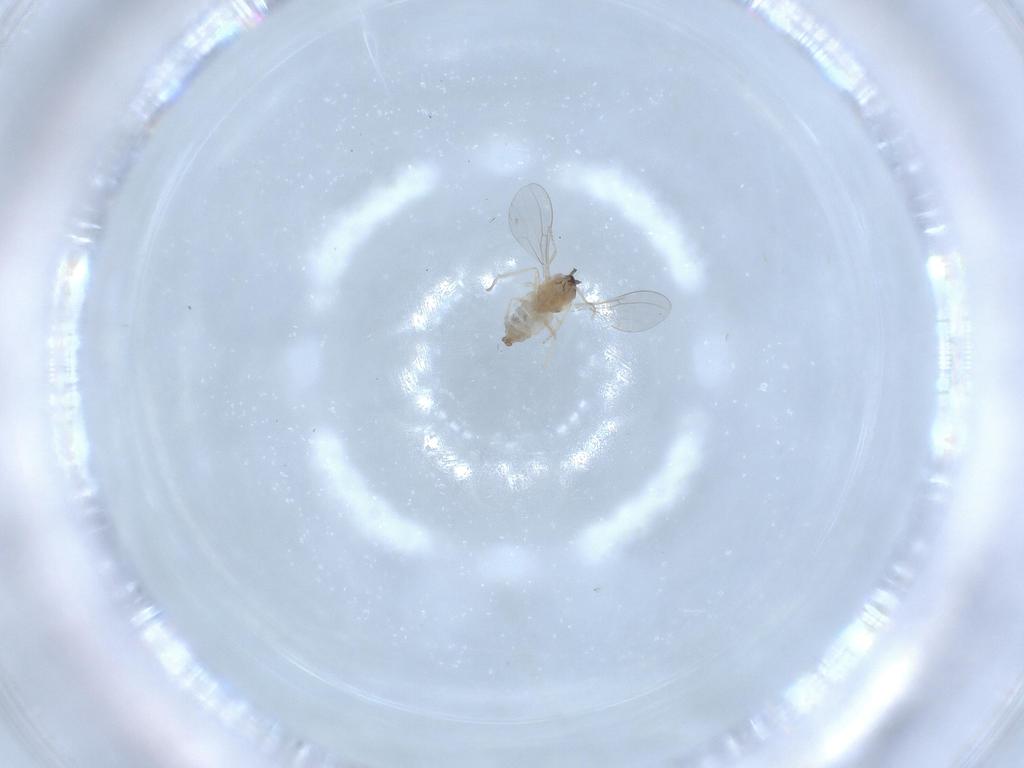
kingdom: Animalia
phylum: Arthropoda
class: Insecta
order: Diptera
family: Cecidomyiidae
